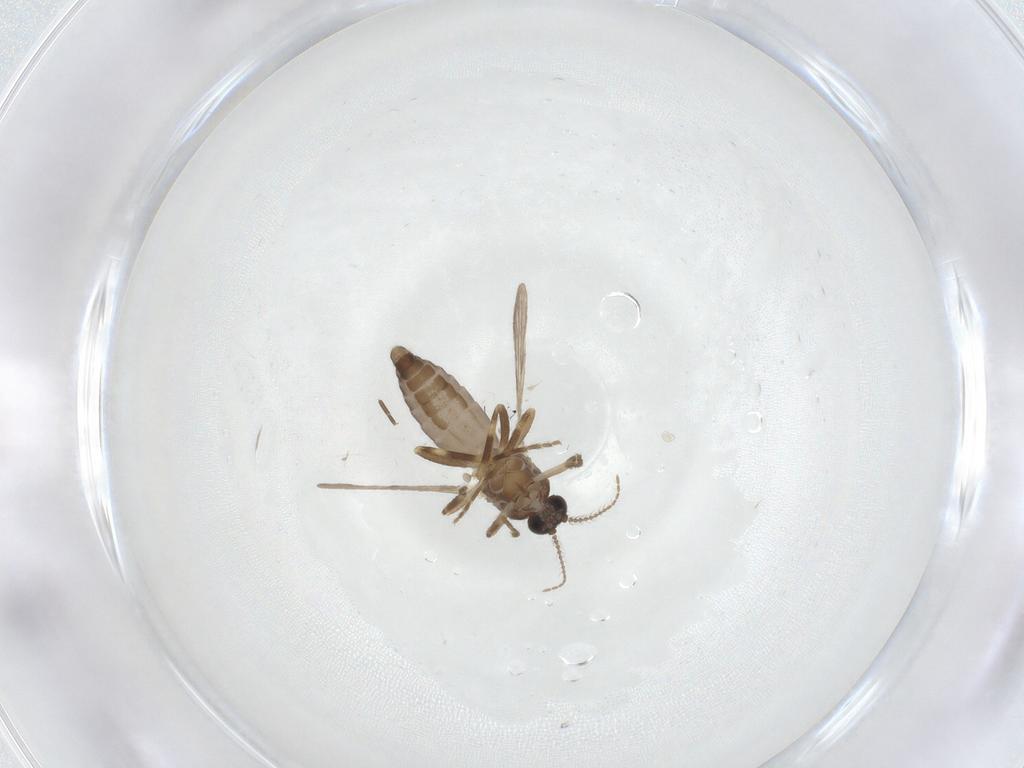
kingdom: Animalia
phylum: Arthropoda
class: Insecta
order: Diptera
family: Ceratopogonidae
